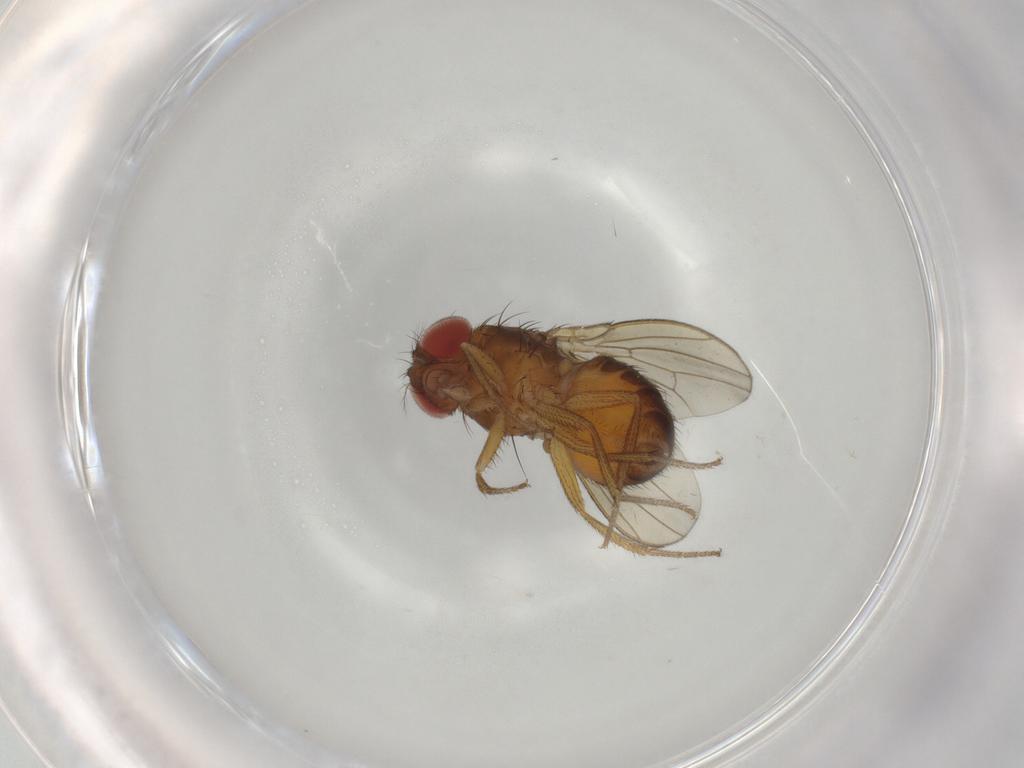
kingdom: Animalia
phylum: Arthropoda
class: Insecta
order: Diptera
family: Drosophilidae
